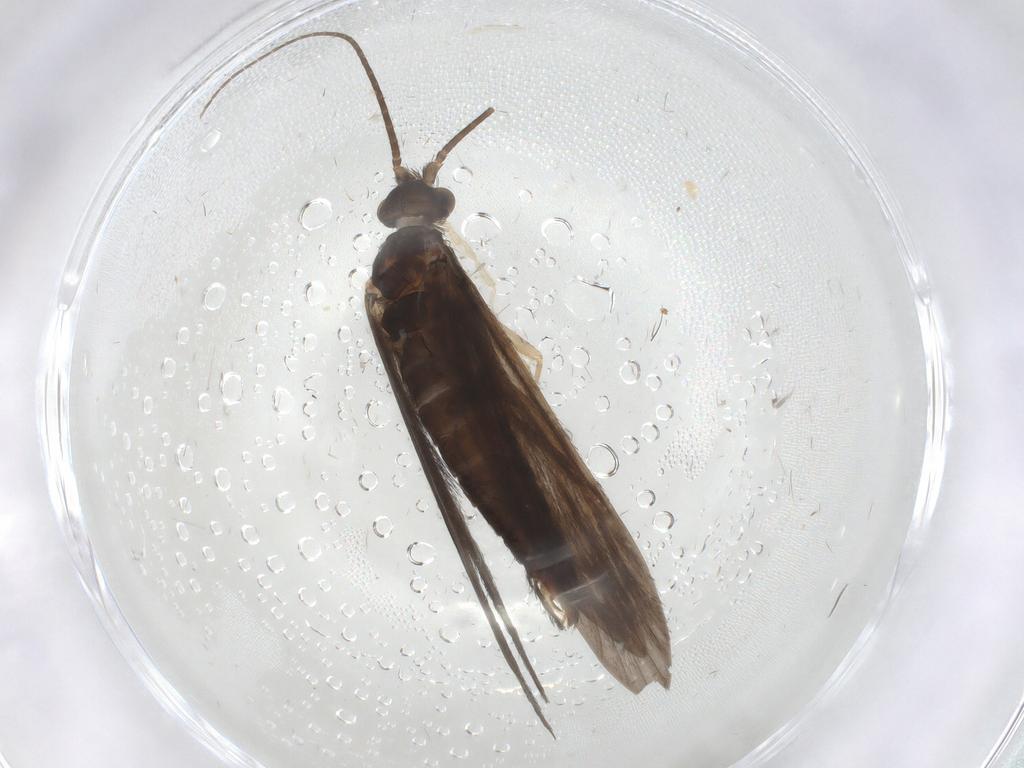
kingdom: Animalia
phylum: Arthropoda
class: Insecta
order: Trichoptera
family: Xiphocentronidae
